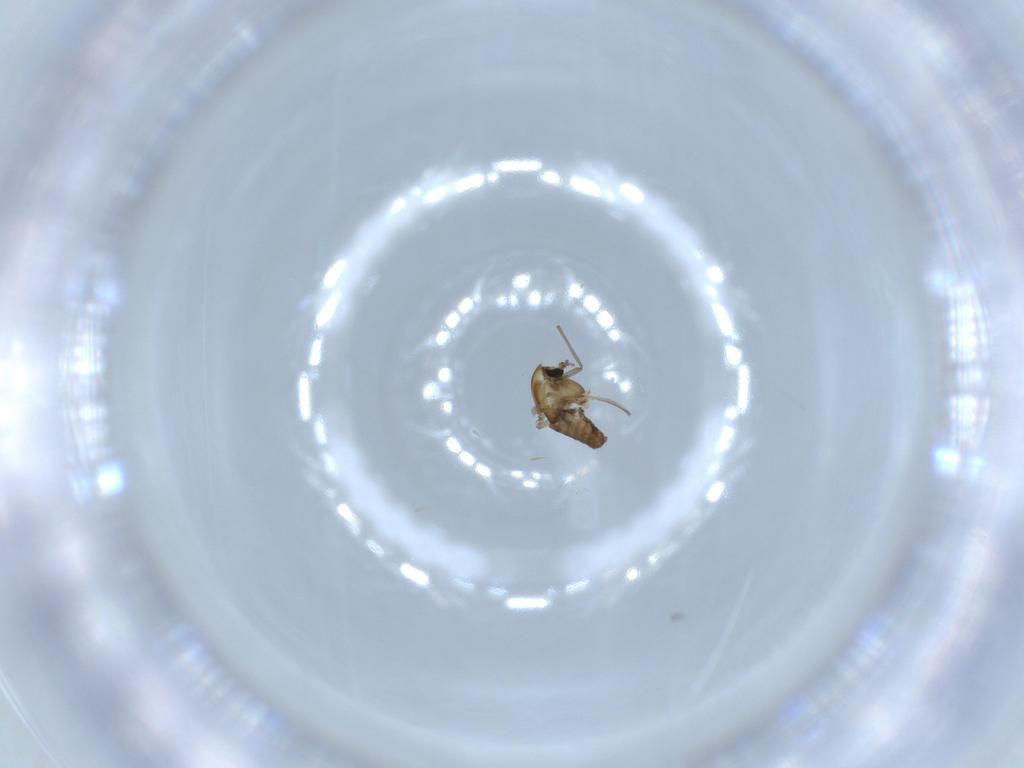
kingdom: Animalia
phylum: Arthropoda
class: Insecta
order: Diptera
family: Chironomidae
